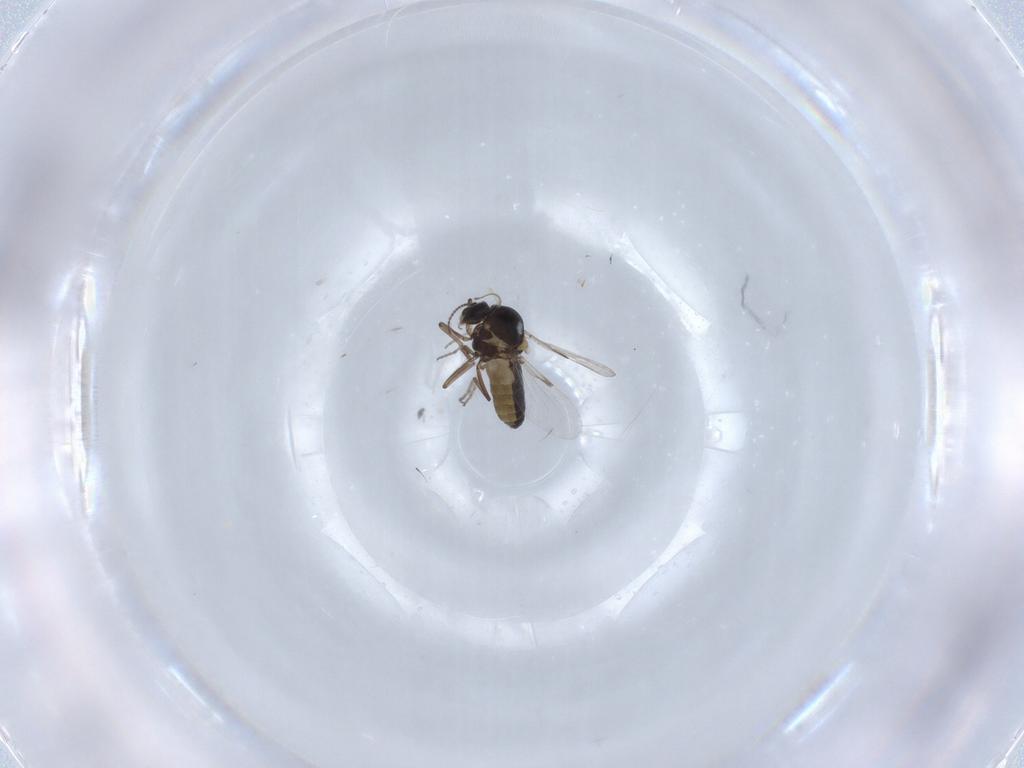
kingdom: Animalia
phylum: Arthropoda
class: Insecta
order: Diptera
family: Ceratopogonidae
